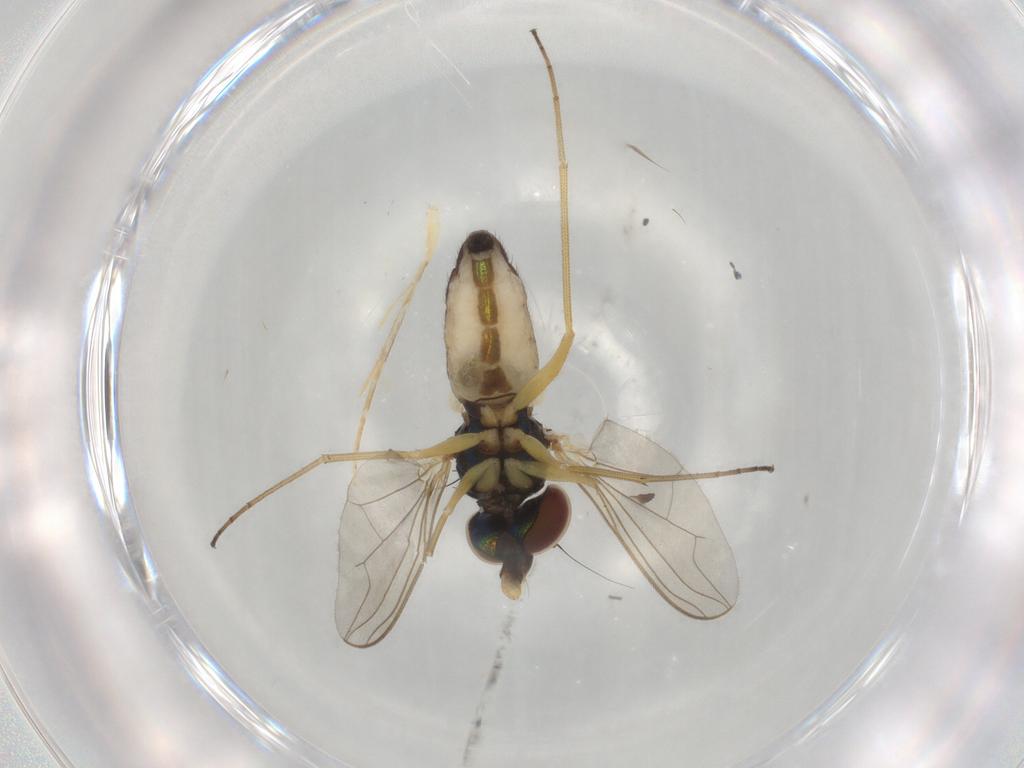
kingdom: Animalia
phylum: Arthropoda
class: Insecta
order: Diptera
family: Dolichopodidae
